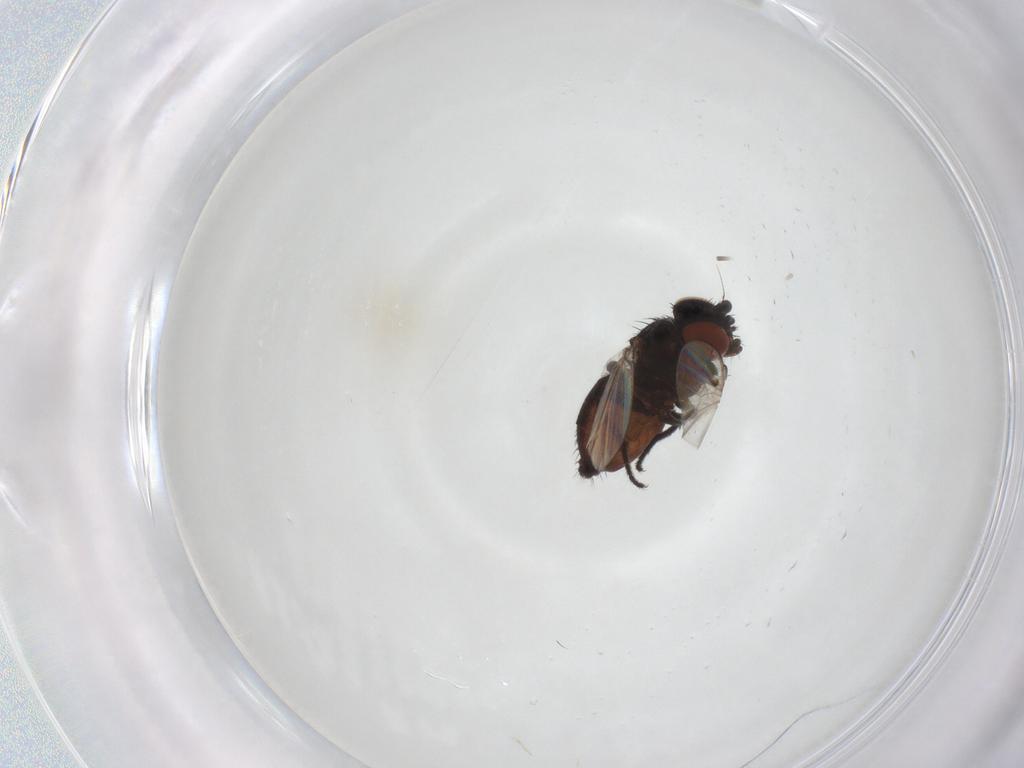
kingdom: Animalia
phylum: Arthropoda
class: Insecta
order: Diptera
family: Milichiidae
